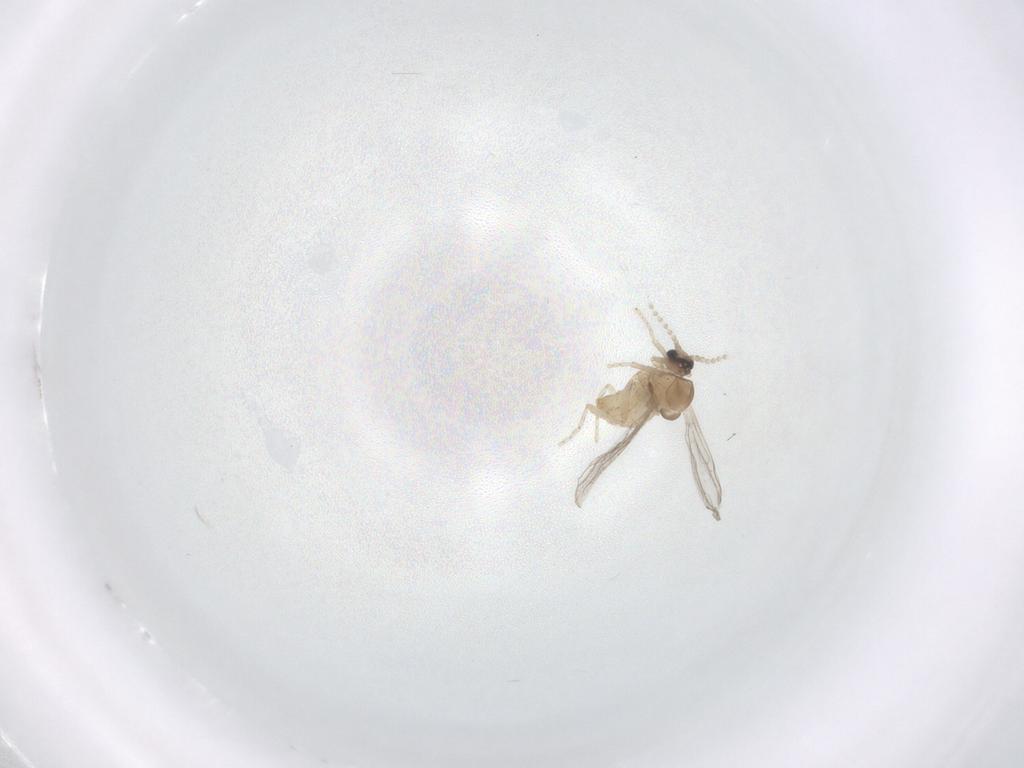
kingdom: Animalia
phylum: Arthropoda
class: Insecta
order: Diptera
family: Cecidomyiidae
